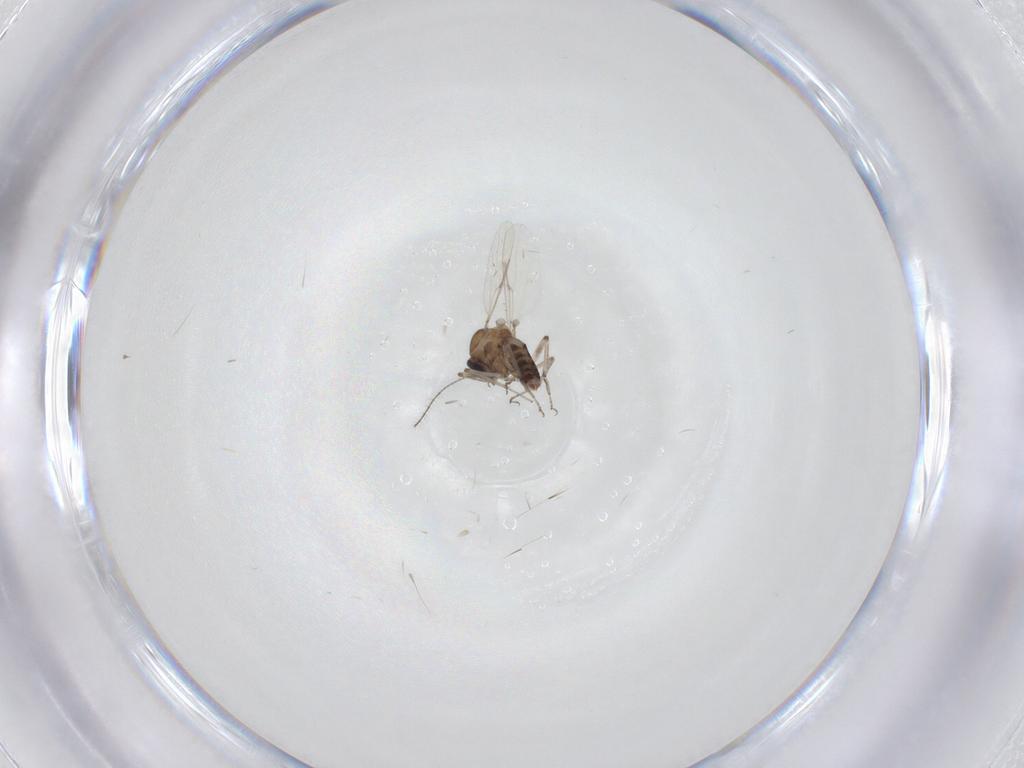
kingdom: Animalia
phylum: Arthropoda
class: Insecta
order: Diptera
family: Ceratopogonidae
